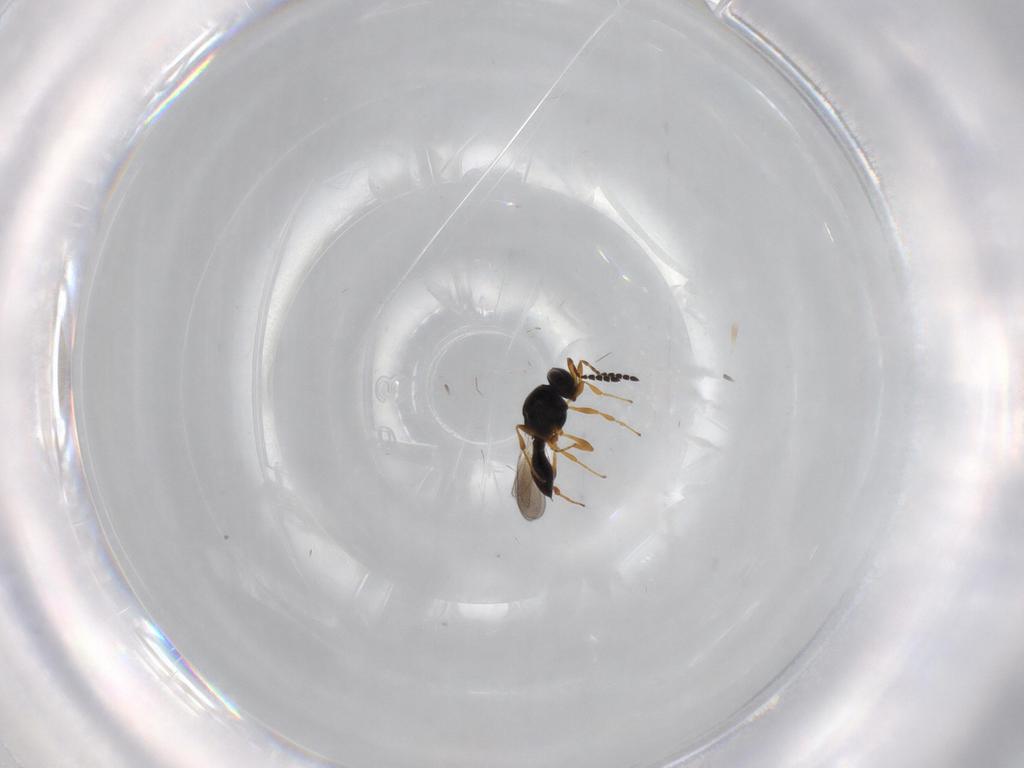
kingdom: Animalia
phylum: Arthropoda
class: Insecta
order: Hymenoptera
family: Platygastridae
